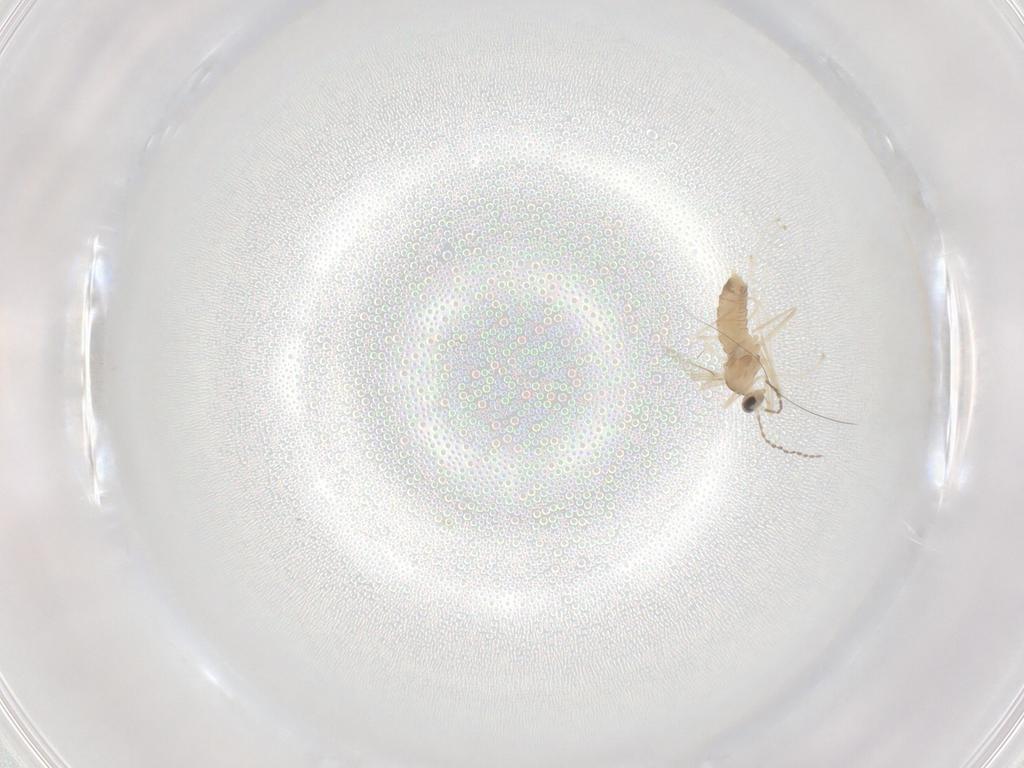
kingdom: Animalia
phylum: Arthropoda
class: Insecta
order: Diptera
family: Cecidomyiidae
